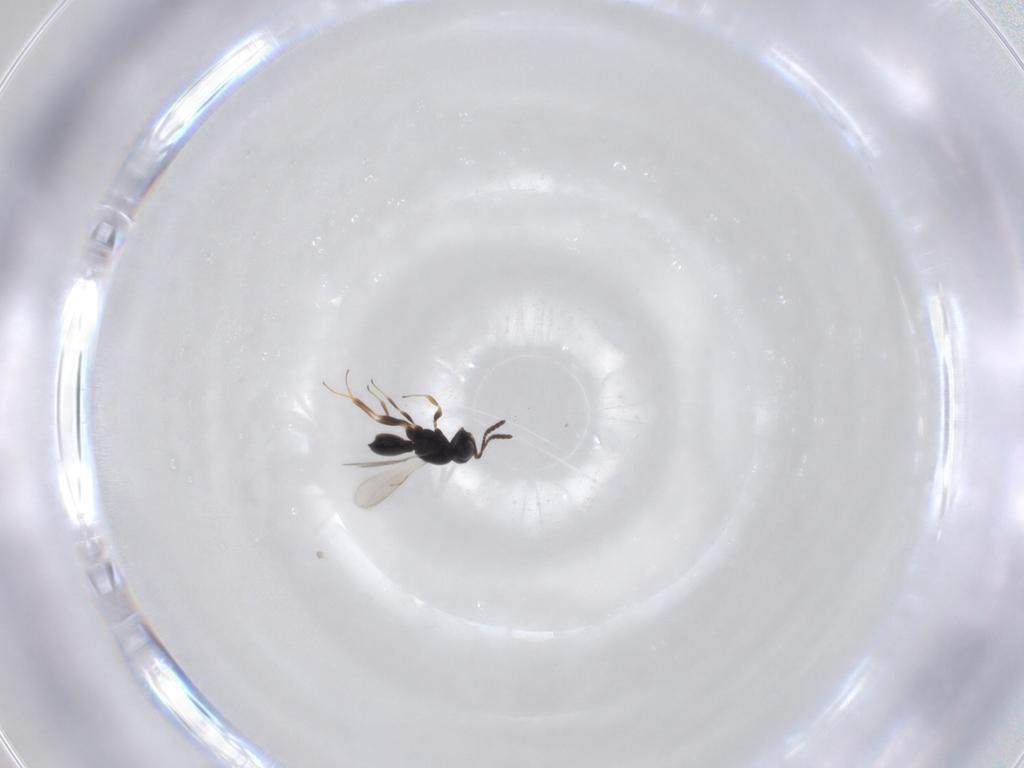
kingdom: Animalia
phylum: Arthropoda
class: Insecta
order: Hymenoptera
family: Scelionidae
